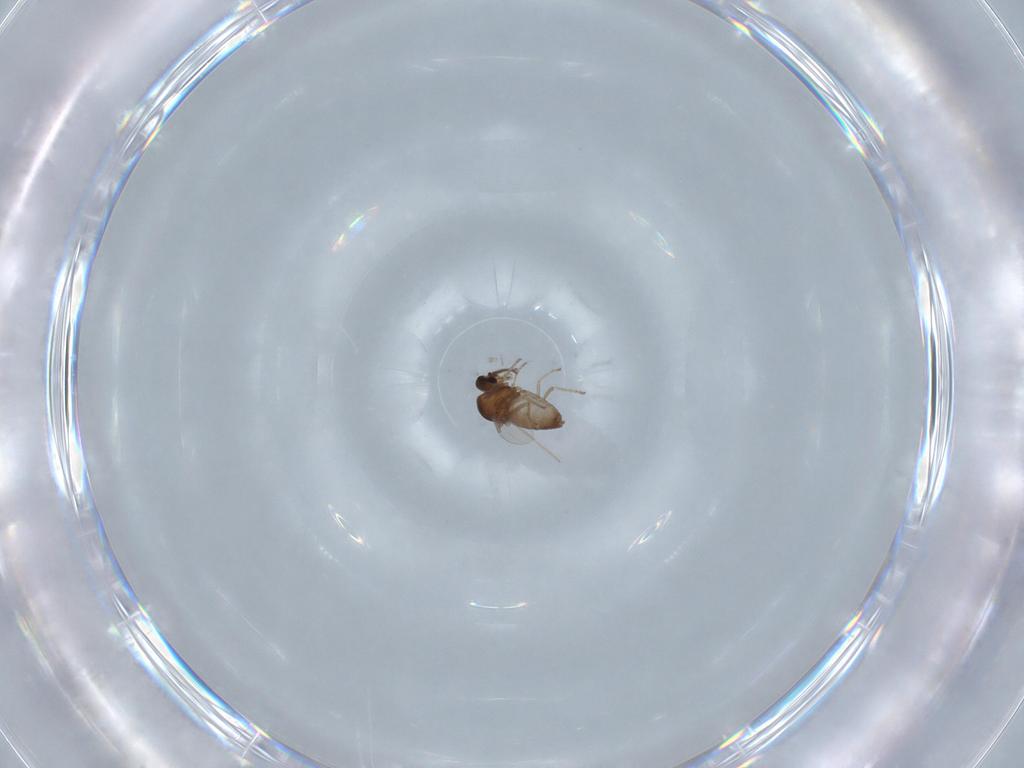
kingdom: Animalia
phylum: Arthropoda
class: Insecta
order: Diptera
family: Ceratopogonidae
